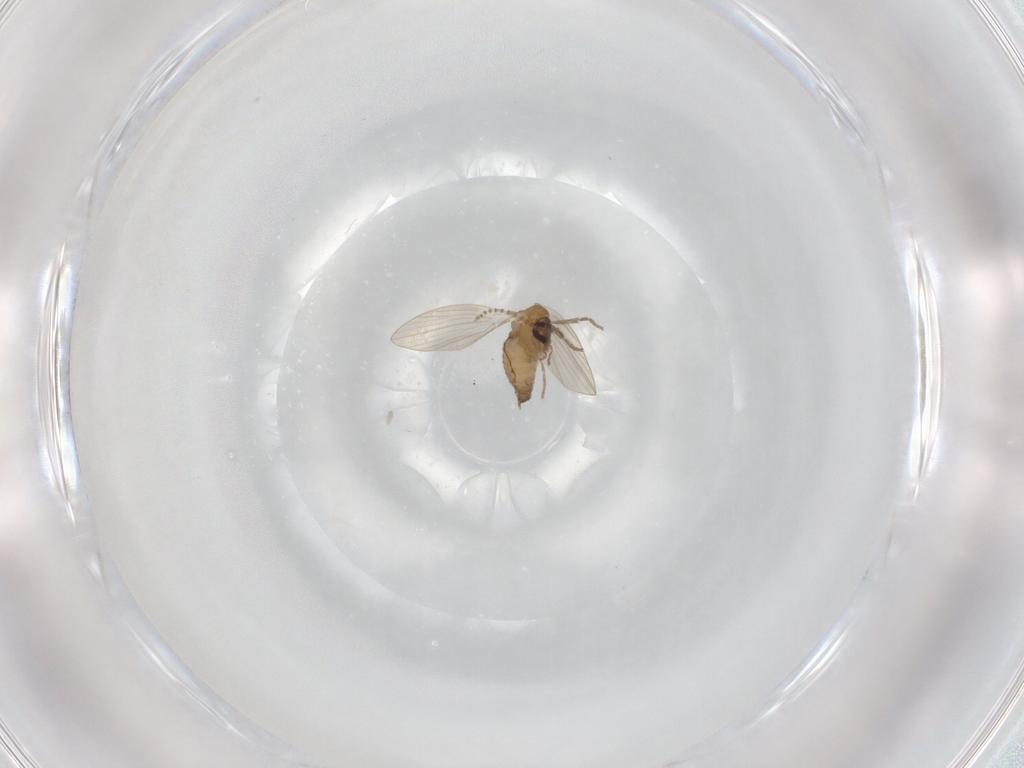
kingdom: Animalia
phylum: Arthropoda
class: Insecta
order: Diptera
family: Psychodidae
